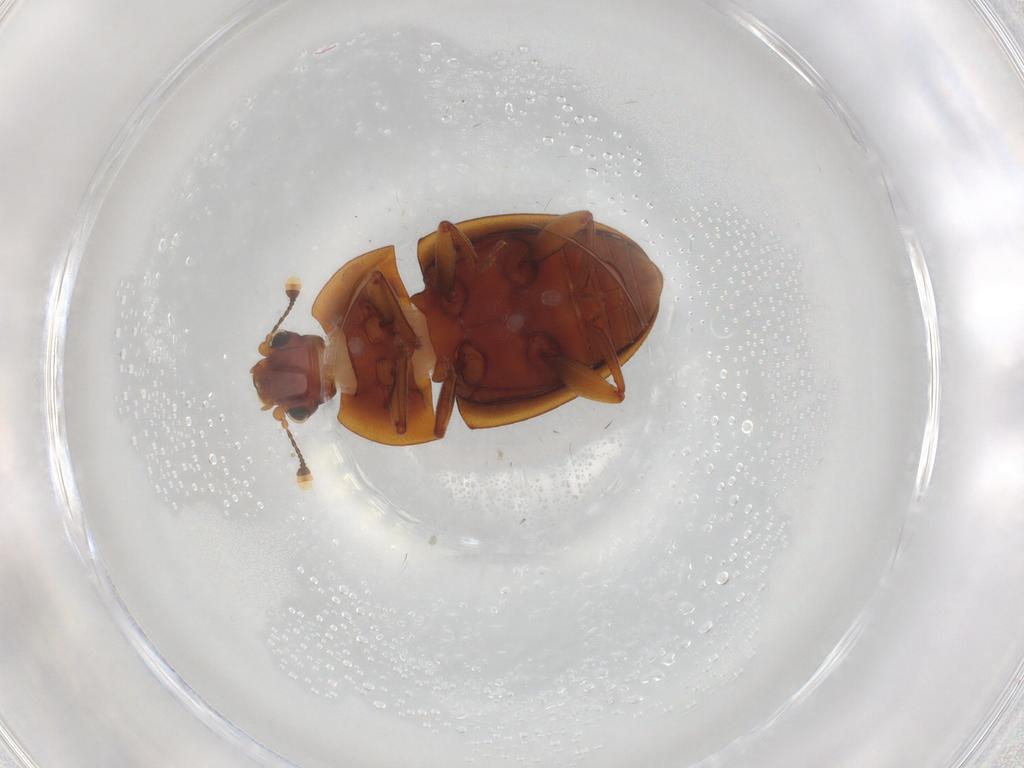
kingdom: Animalia
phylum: Arthropoda
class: Insecta
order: Coleoptera
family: Nitidulidae
